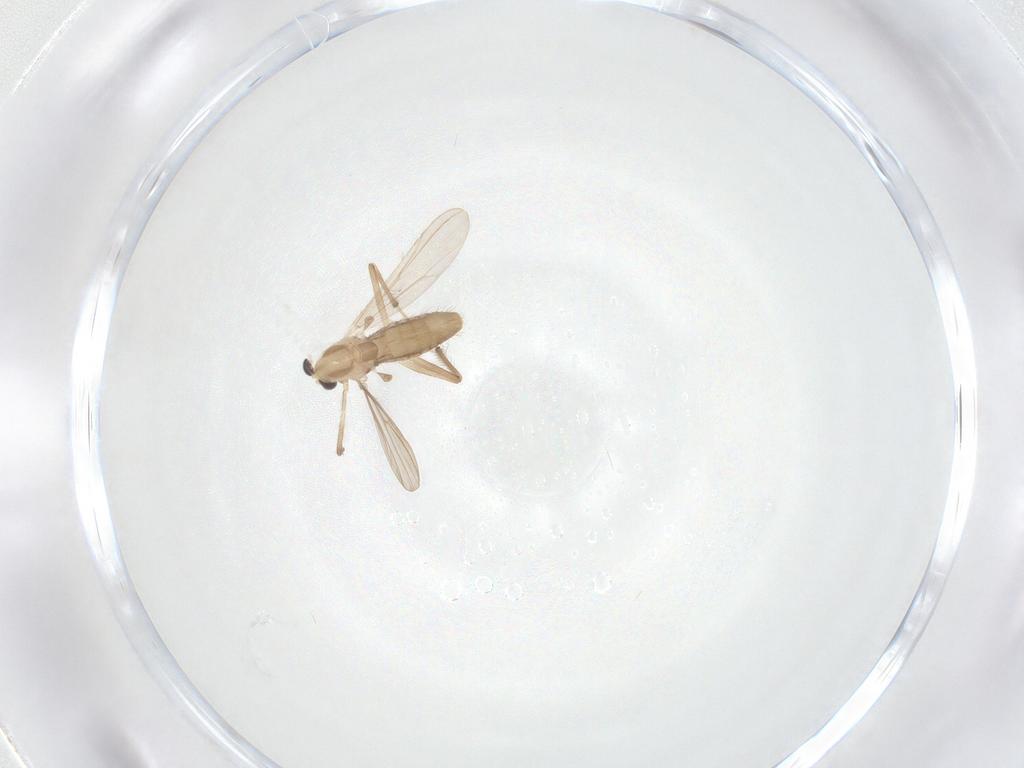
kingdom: Animalia
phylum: Arthropoda
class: Insecta
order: Diptera
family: Chironomidae
